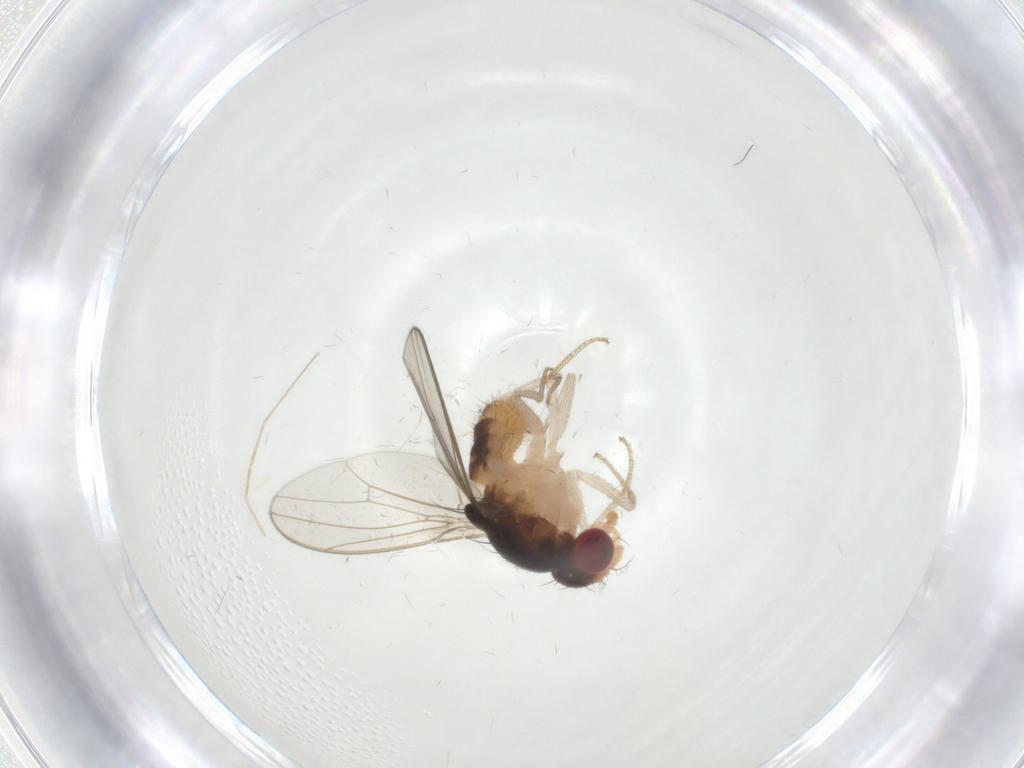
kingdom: Animalia
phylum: Arthropoda
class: Insecta
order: Diptera
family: Chironomidae
